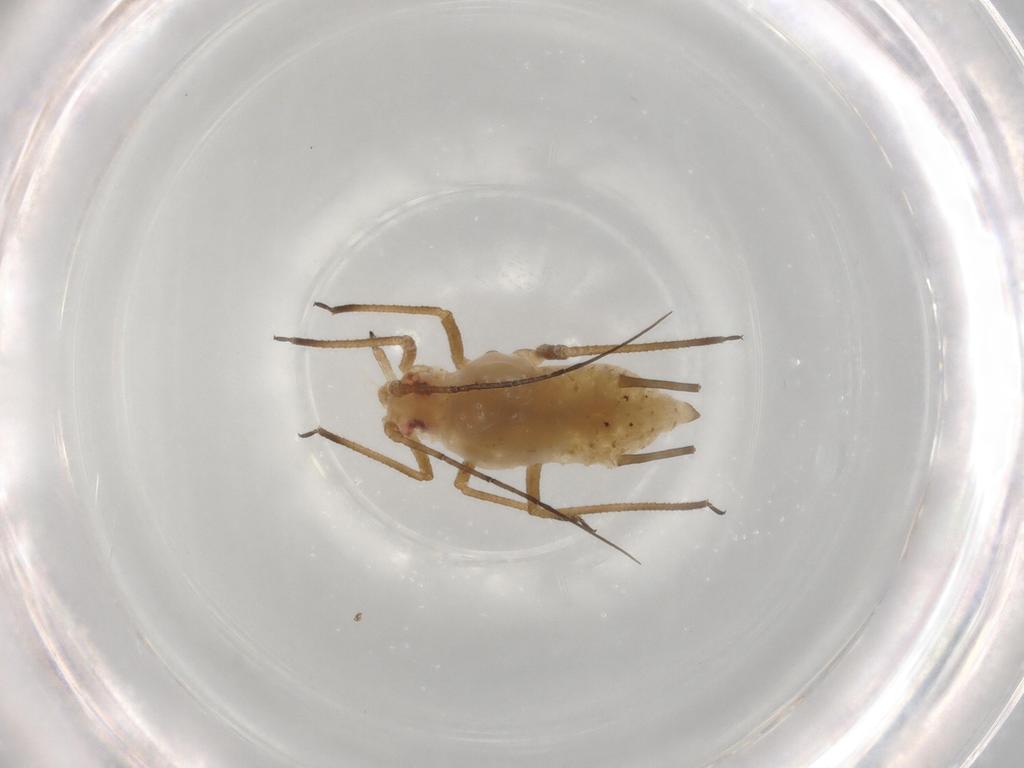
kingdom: Animalia
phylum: Arthropoda
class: Insecta
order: Hemiptera
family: Aphididae
